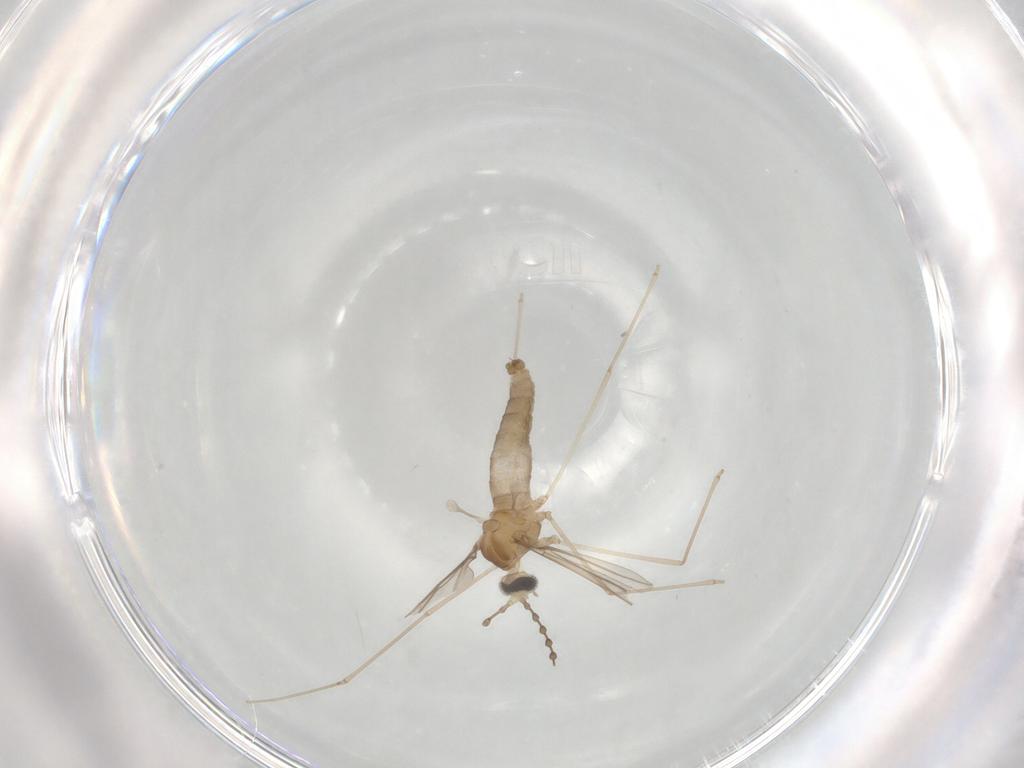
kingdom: Animalia
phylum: Arthropoda
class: Insecta
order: Diptera
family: Cecidomyiidae
